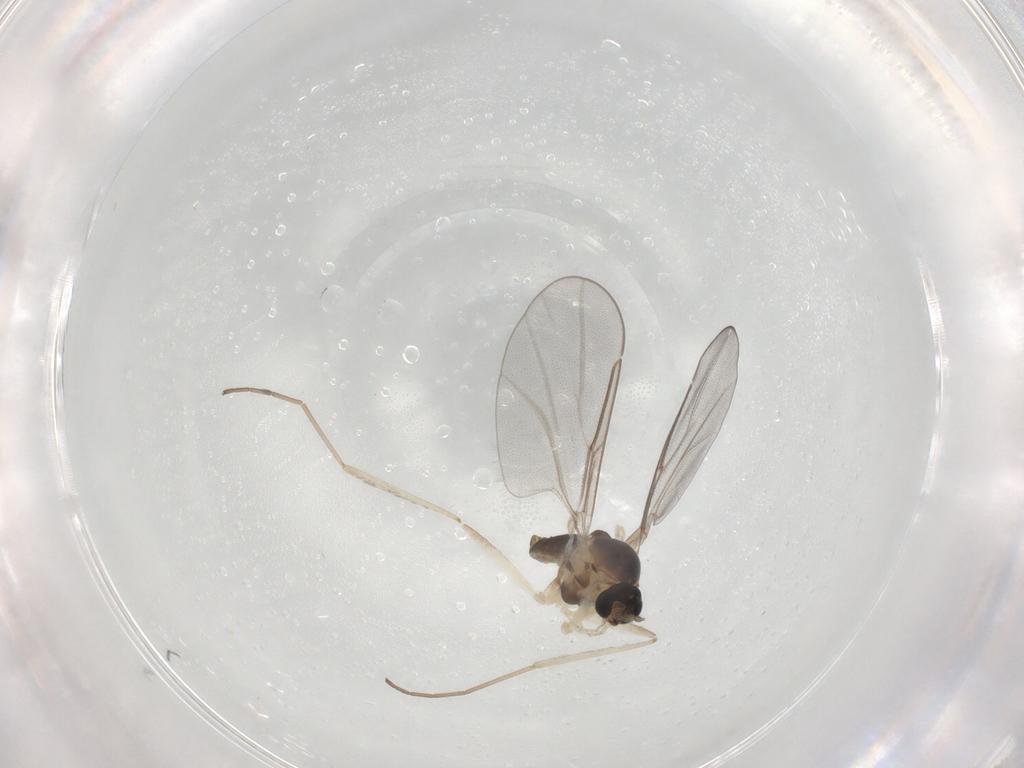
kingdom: Animalia
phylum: Arthropoda
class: Insecta
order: Diptera
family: Cecidomyiidae
